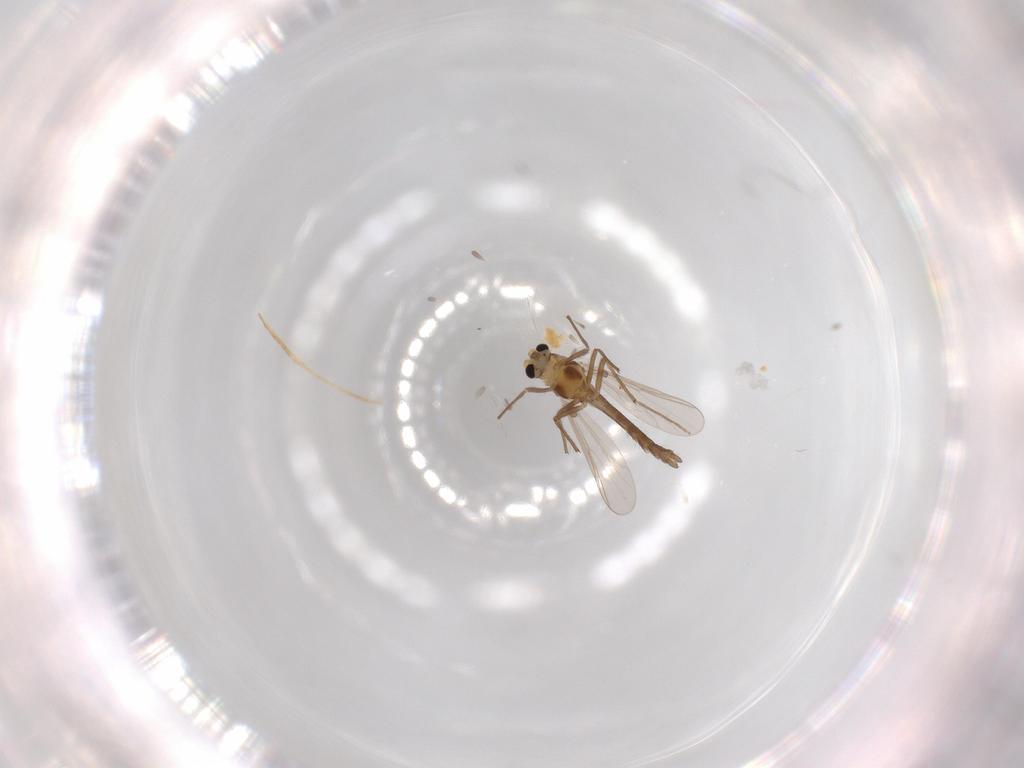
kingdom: Animalia
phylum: Arthropoda
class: Insecta
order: Diptera
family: Chironomidae
